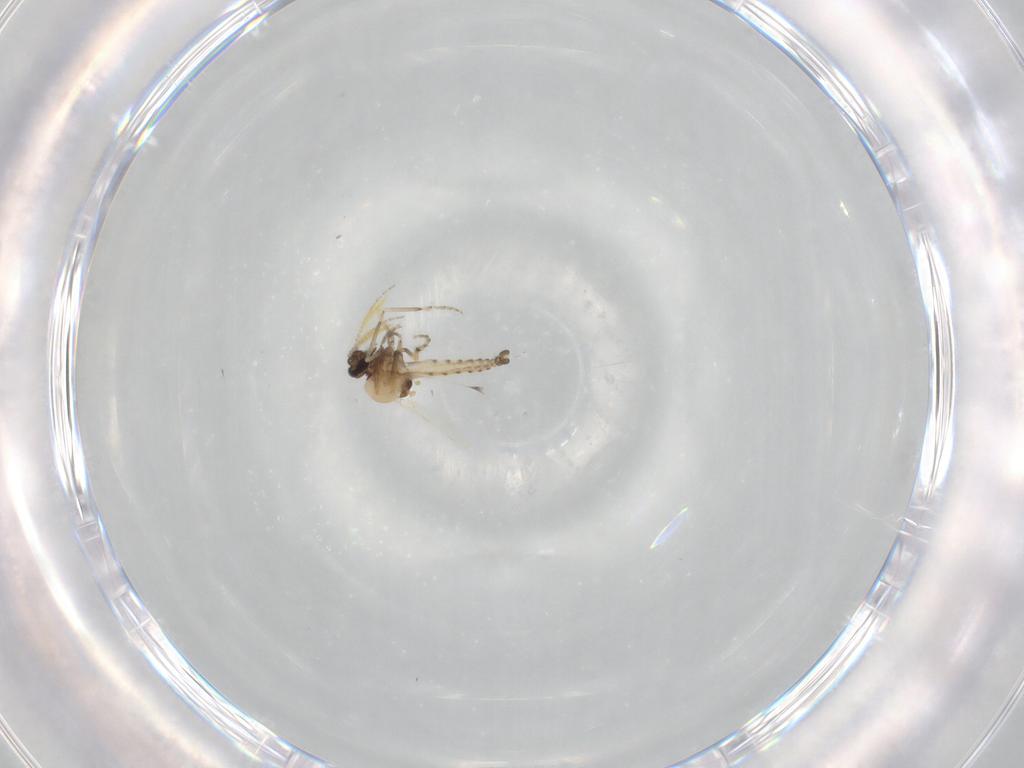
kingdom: Animalia
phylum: Arthropoda
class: Insecta
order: Diptera
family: Ceratopogonidae
